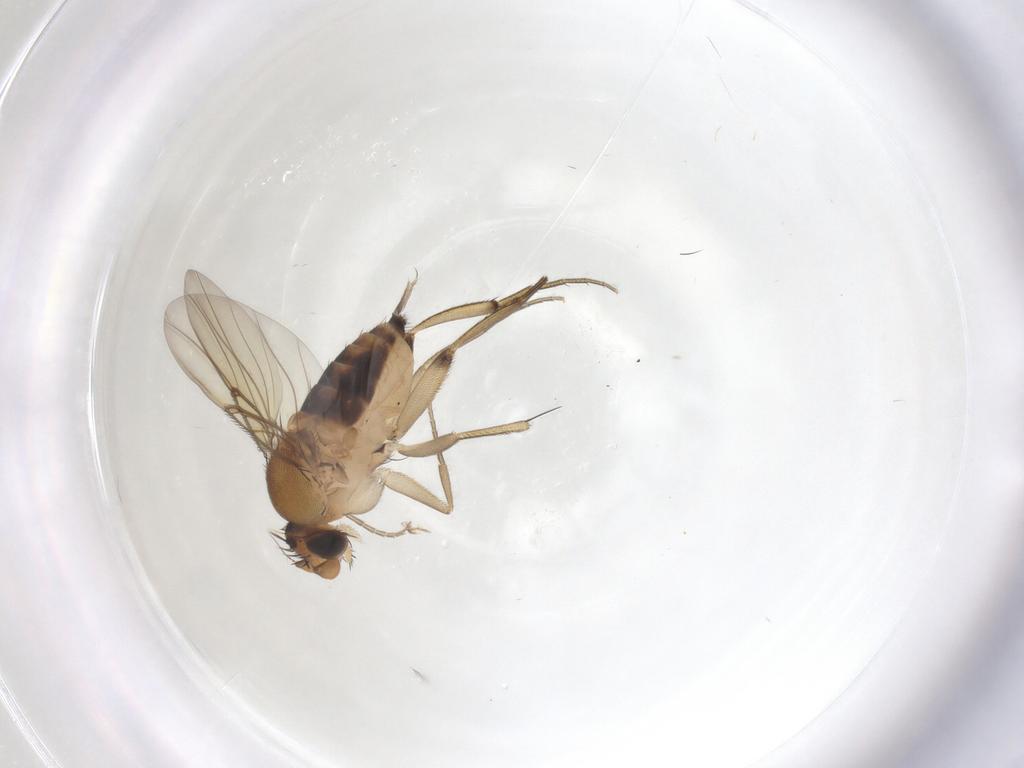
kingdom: Animalia
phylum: Arthropoda
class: Insecta
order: Diptera
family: Phoridae
